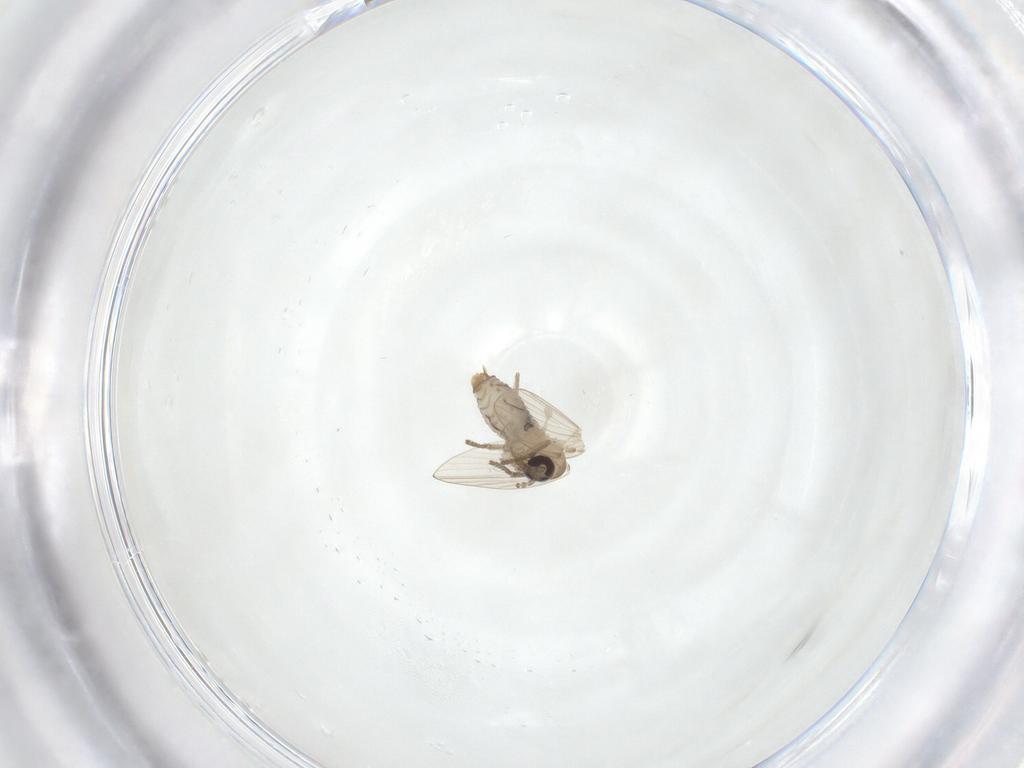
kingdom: Animalia
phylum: Arthropoda
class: Insecta
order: Diptera
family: Psychodidae
